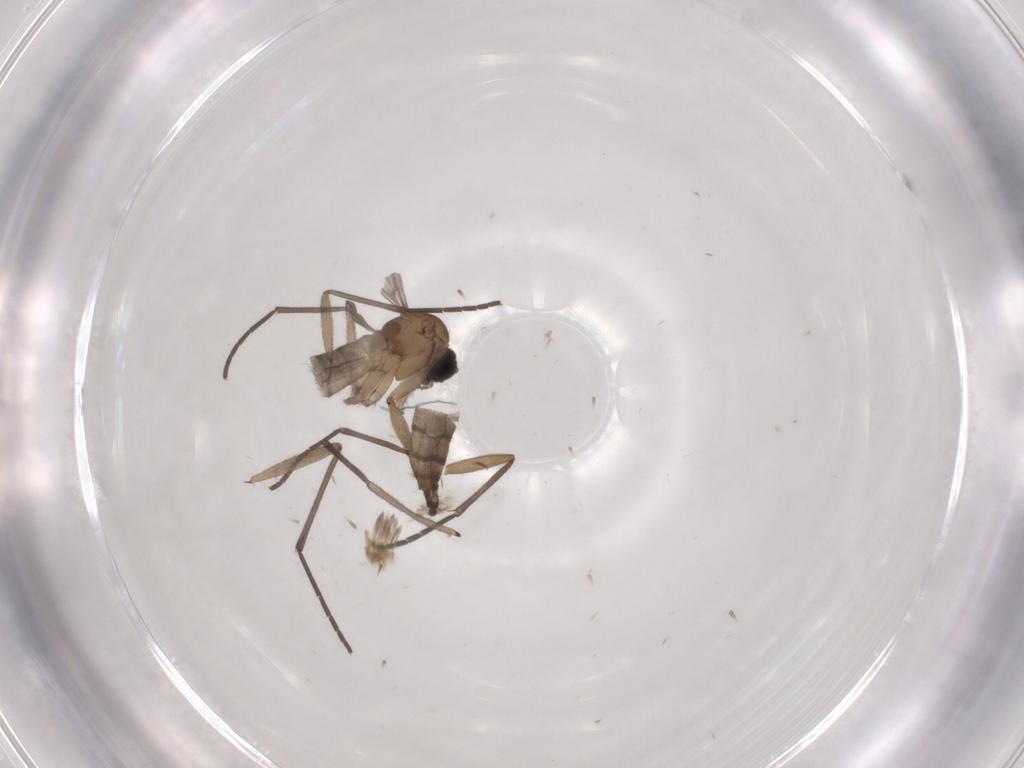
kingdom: Animalia
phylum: Arthropoda
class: Insecta
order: Diptera
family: Sciaridae
